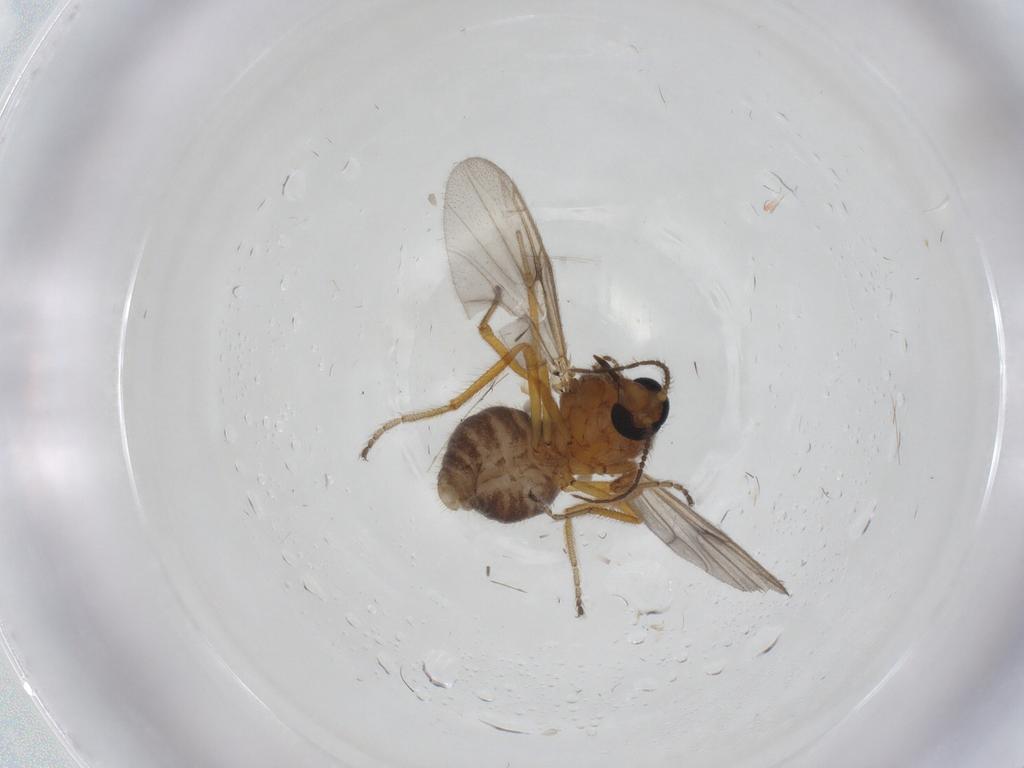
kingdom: Animalia
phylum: Arthropoda
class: Insecta
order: Diptera
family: Ceratopogonidae
